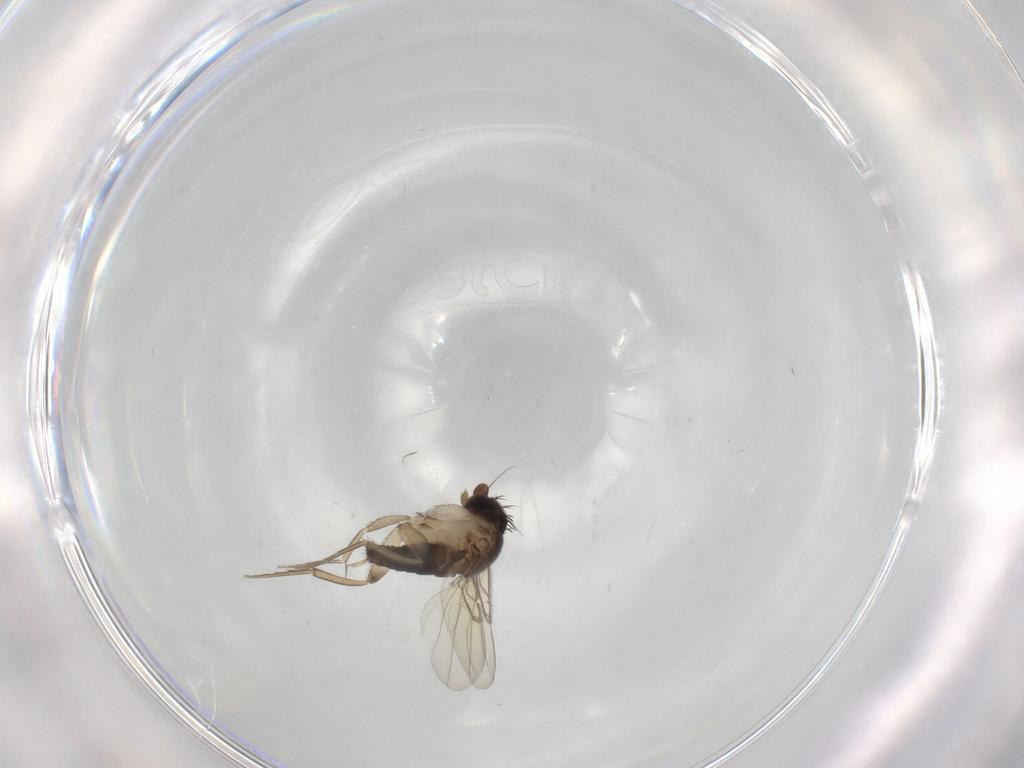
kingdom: Animalia
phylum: Arthropoda
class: Insecta
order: Diptera
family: Phoridae
